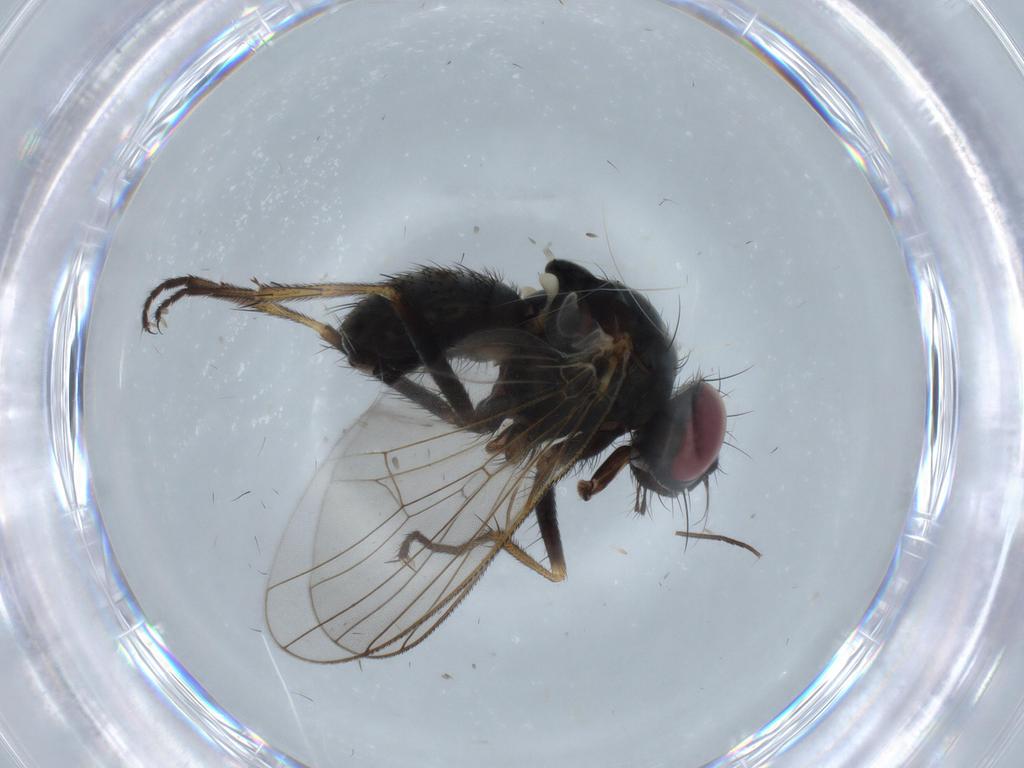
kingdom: Animalia
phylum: Arthropoda
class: Insecta
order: Diptera
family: Muscidae
